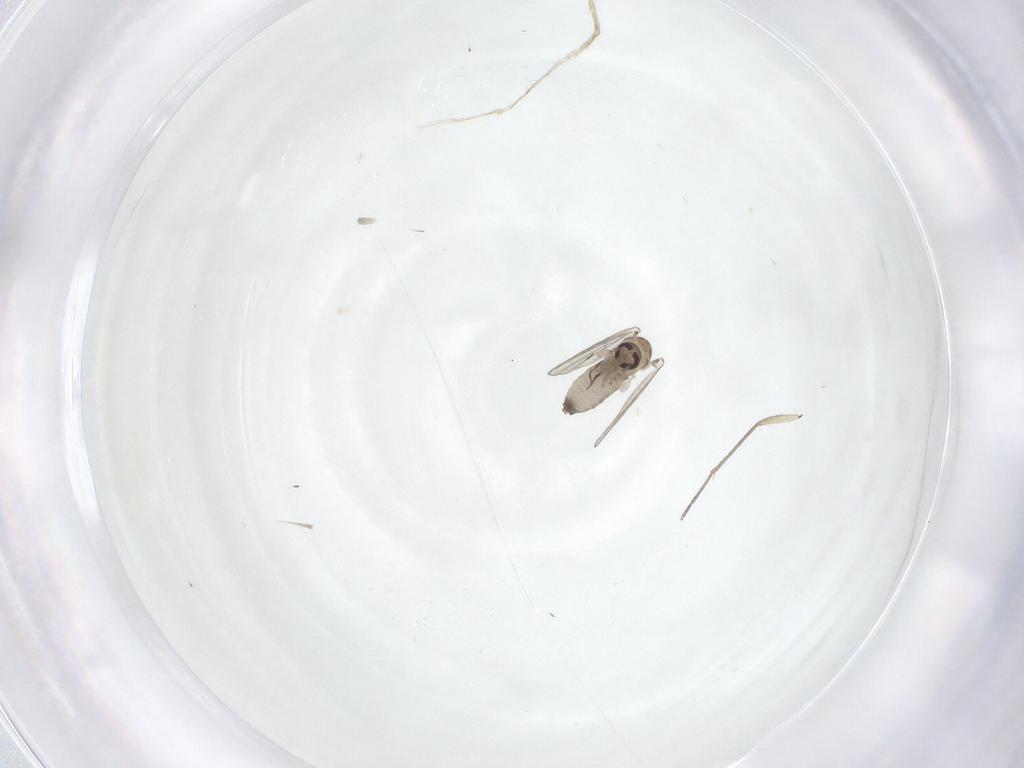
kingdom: Animalia
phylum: Arthropoda
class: Insecta
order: Diptera
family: Psychodidae
